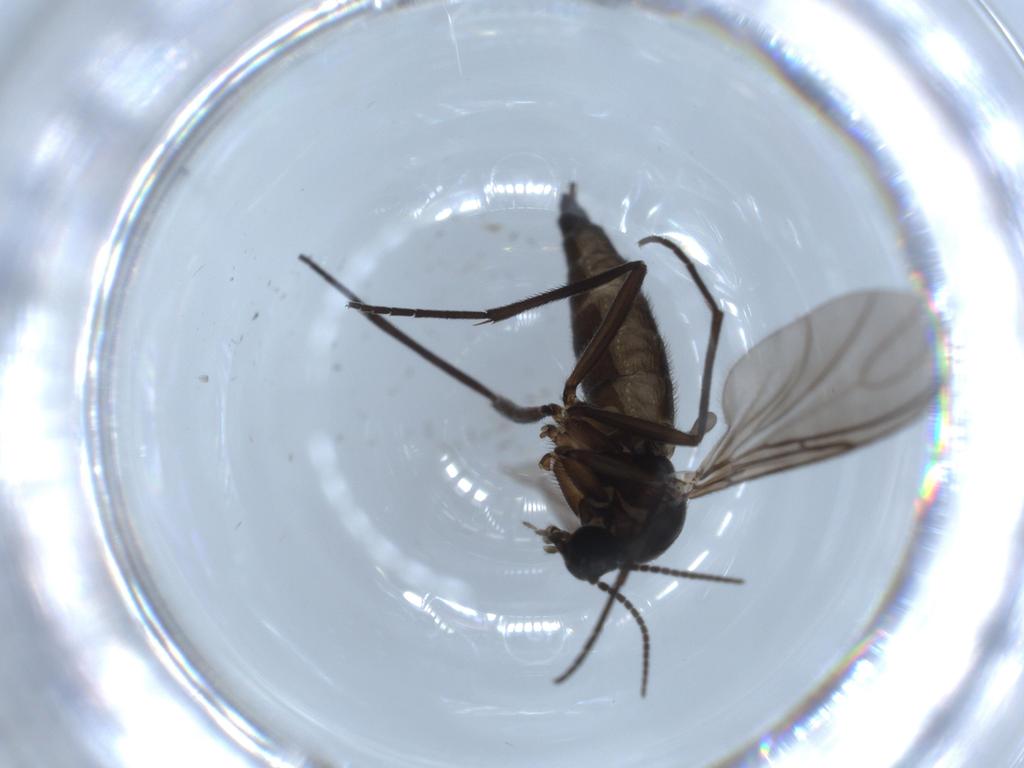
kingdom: Animalia
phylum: Arthropoda
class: Insecta
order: Diptera
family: Sciaridae
